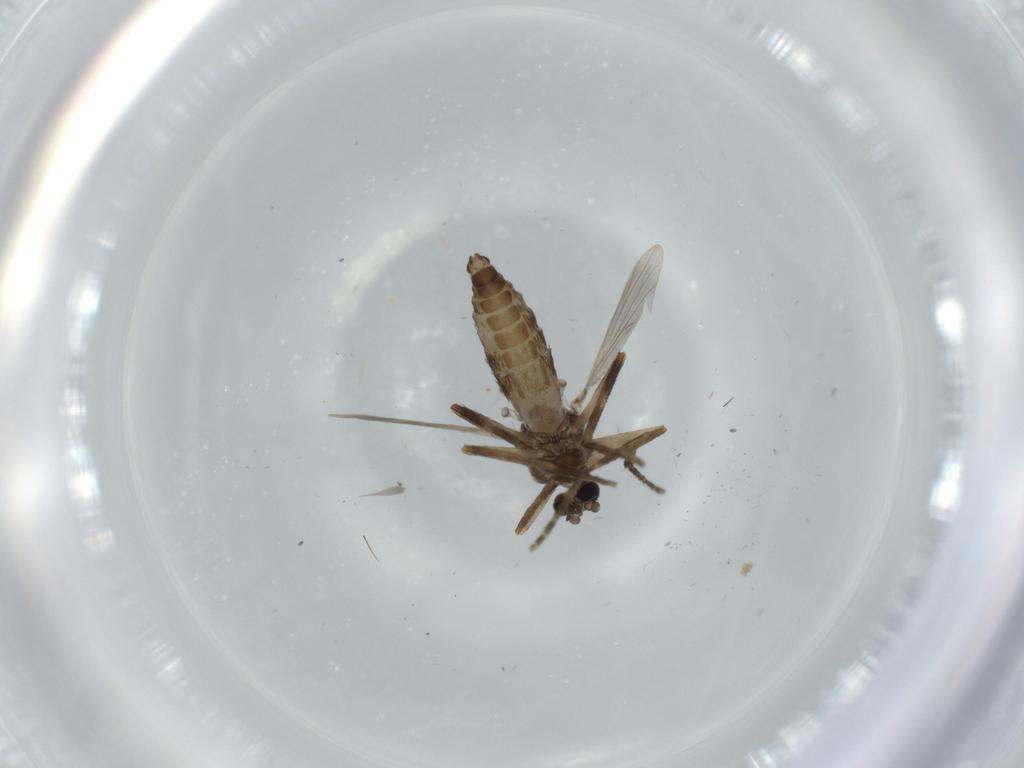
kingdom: Animalia
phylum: Arthropoda
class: Insecta
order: Diptera
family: Ceratopogonidae
